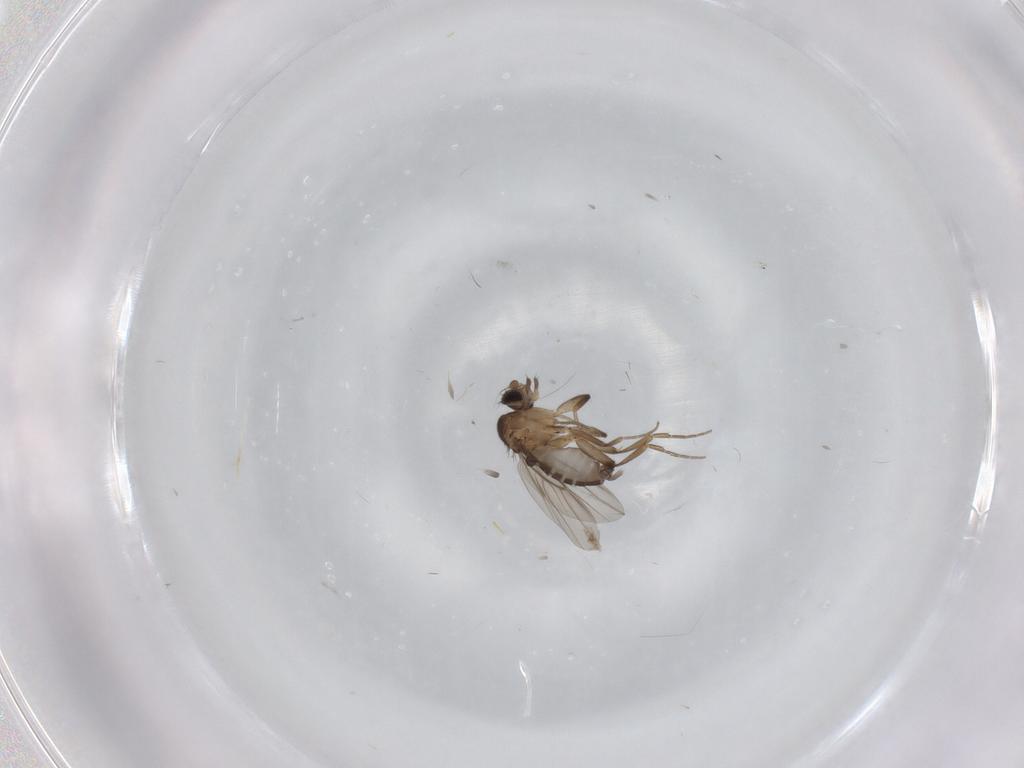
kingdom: Animalia
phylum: Arthropoda
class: Insecta
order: Diptera
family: Phoridae
